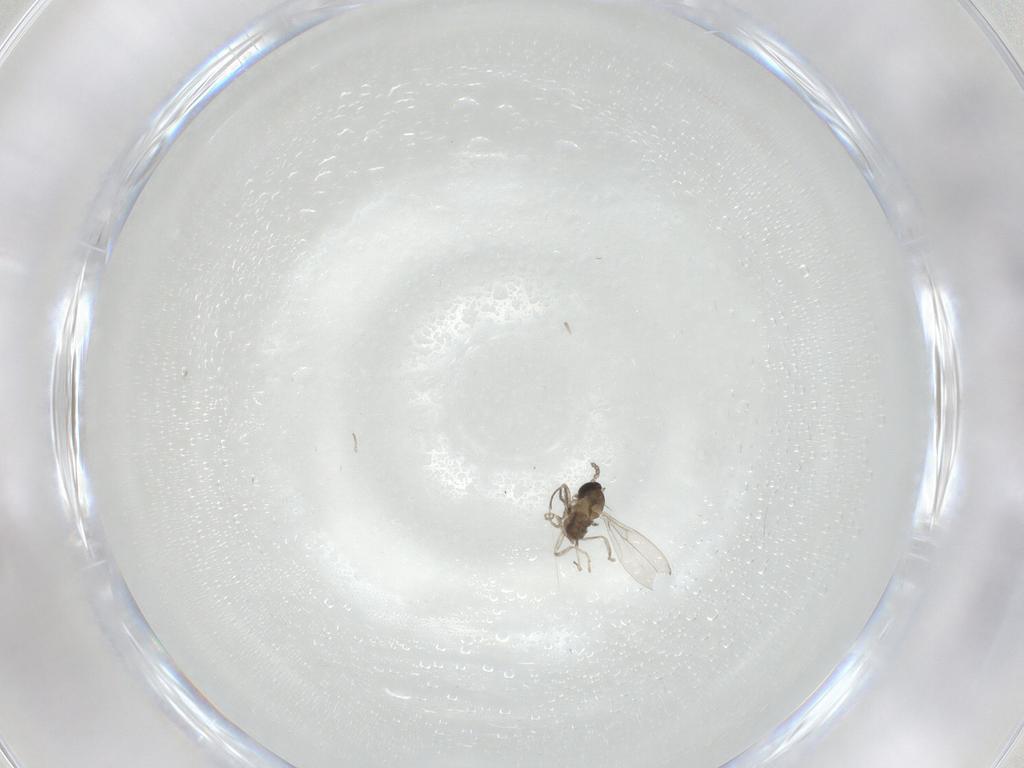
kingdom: Animalia
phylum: Arthropoda
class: Insecta
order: Diptera
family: Cecidomyiidae
